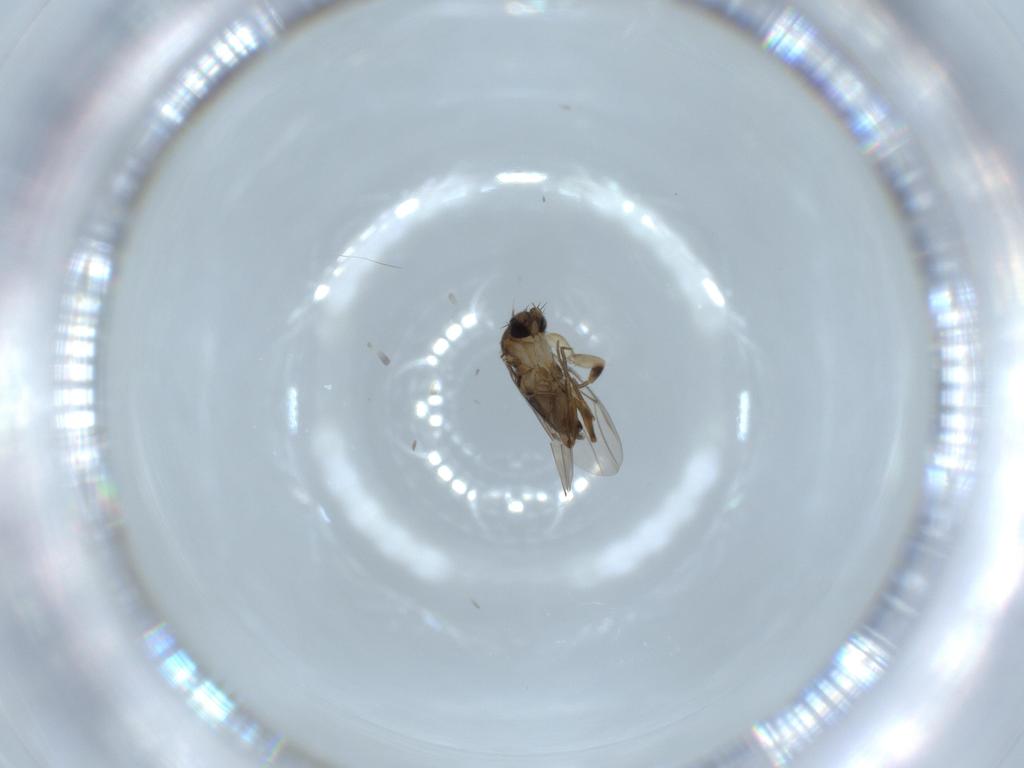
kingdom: Animalia
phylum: Arthropoda
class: Insecta
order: Diptera
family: Phoridae
